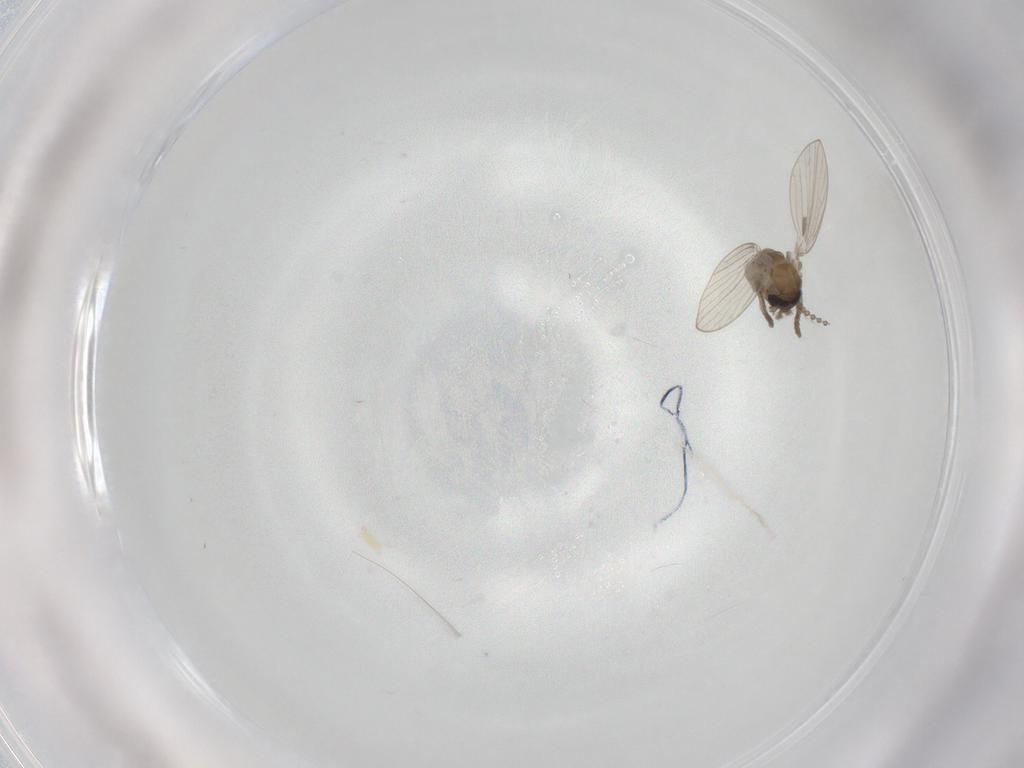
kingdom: Animalia
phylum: Arthropoda
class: Insecta
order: Diptera
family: Psychodidae
